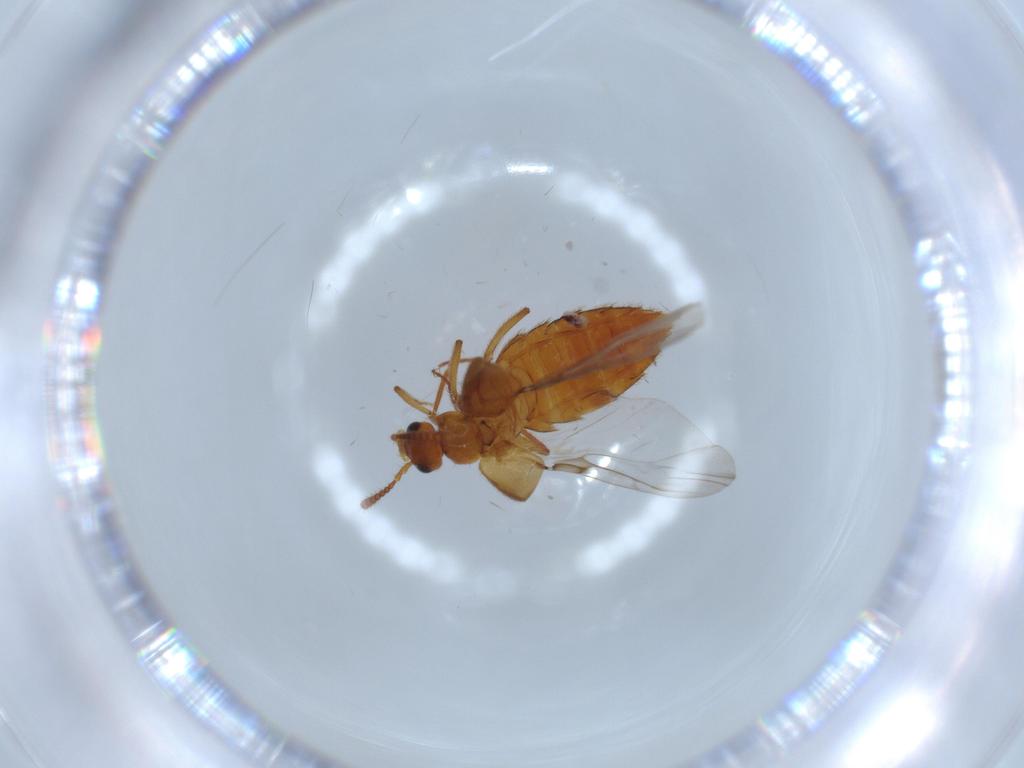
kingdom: Animalia
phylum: Arthropoda
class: Insecta
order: Coleoptera
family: Staphylinidae
